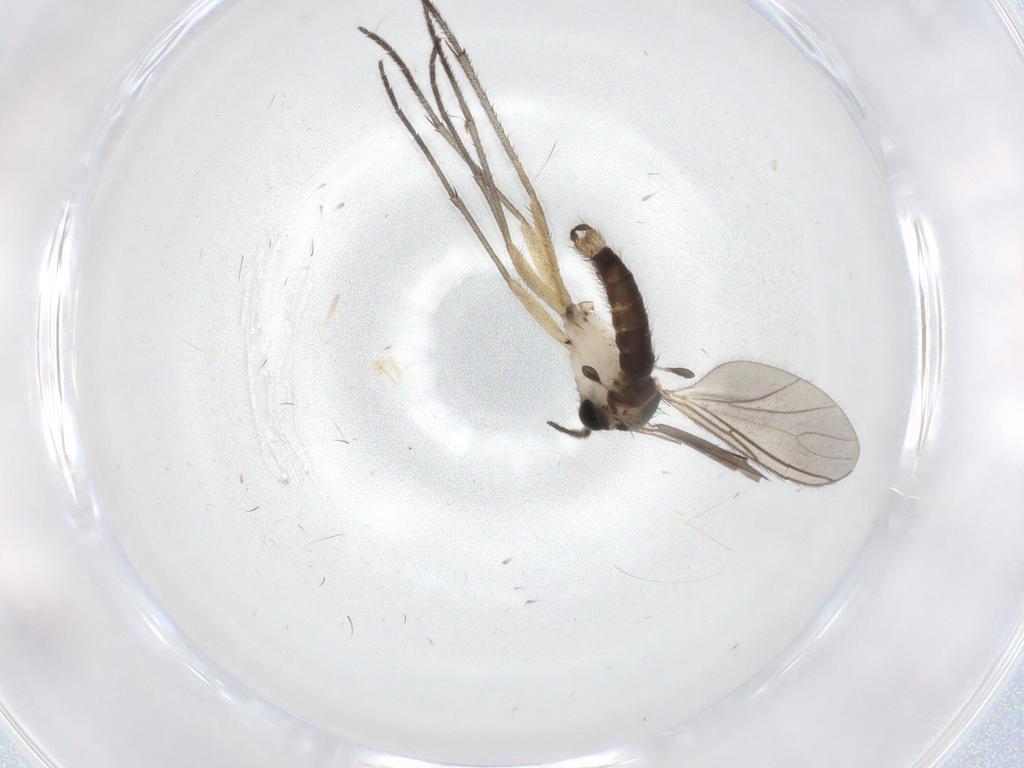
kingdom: Animalia
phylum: Arthropoda
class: Insecta
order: Diptera
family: Sciaridae
